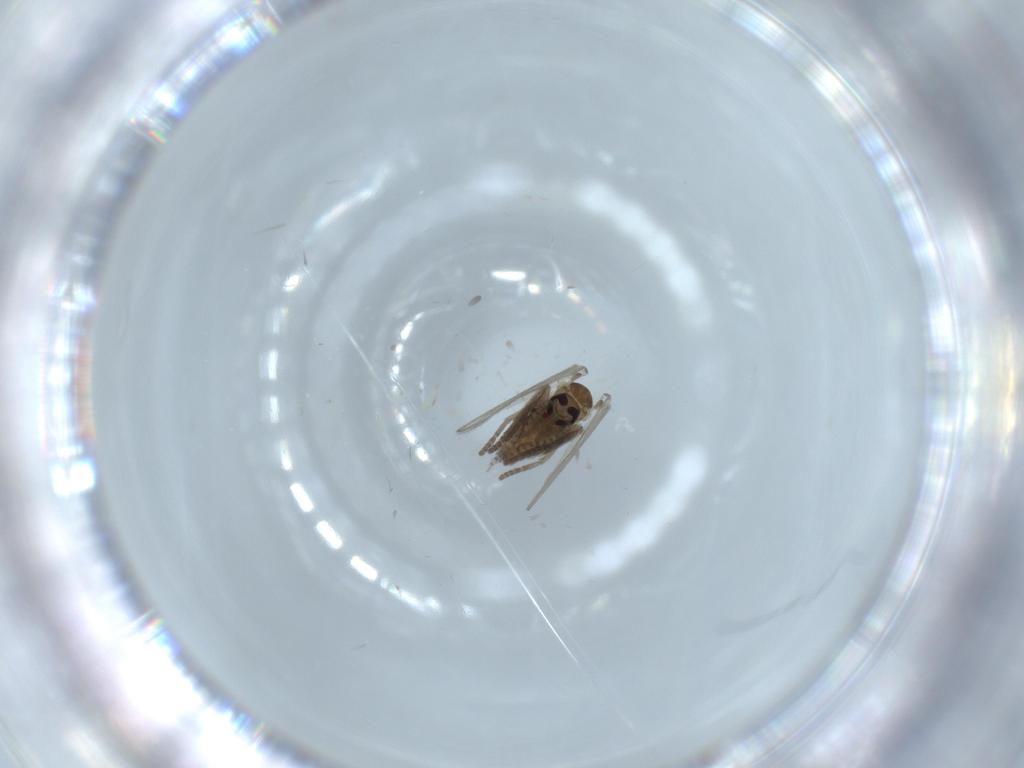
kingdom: Animalia
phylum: Arthropoda
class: Insecta
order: Diptera
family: Psychodidae
